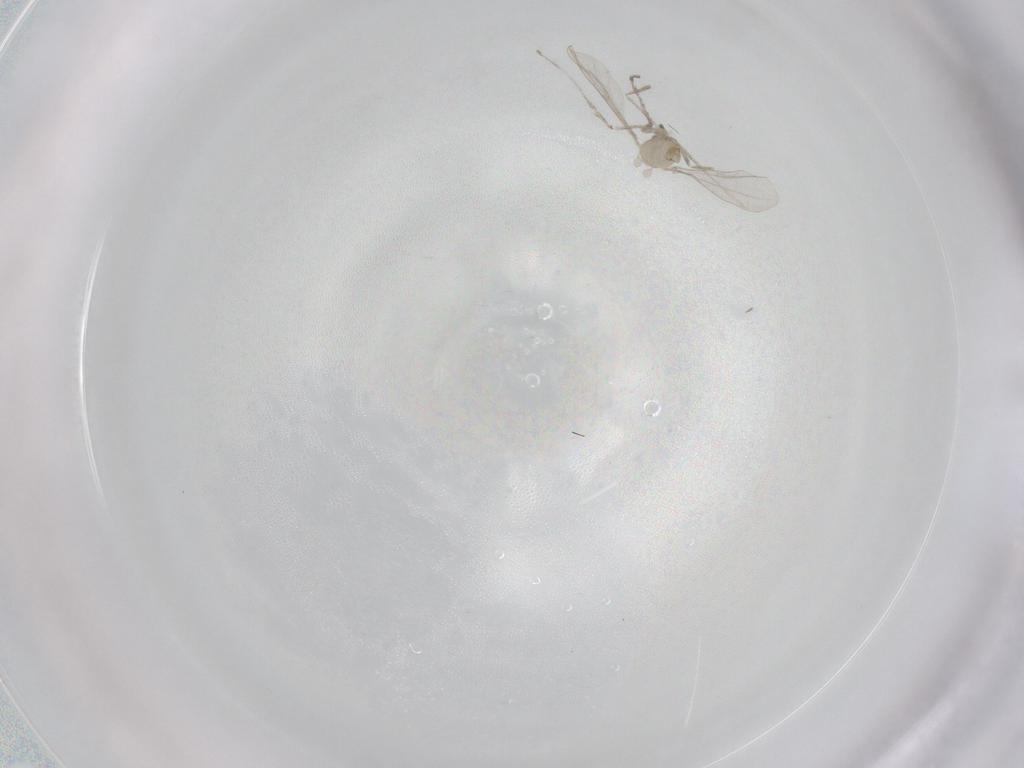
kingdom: Animalia
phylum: Arthropoda
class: Insecta
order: Diptera
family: Cecidomyiidae
